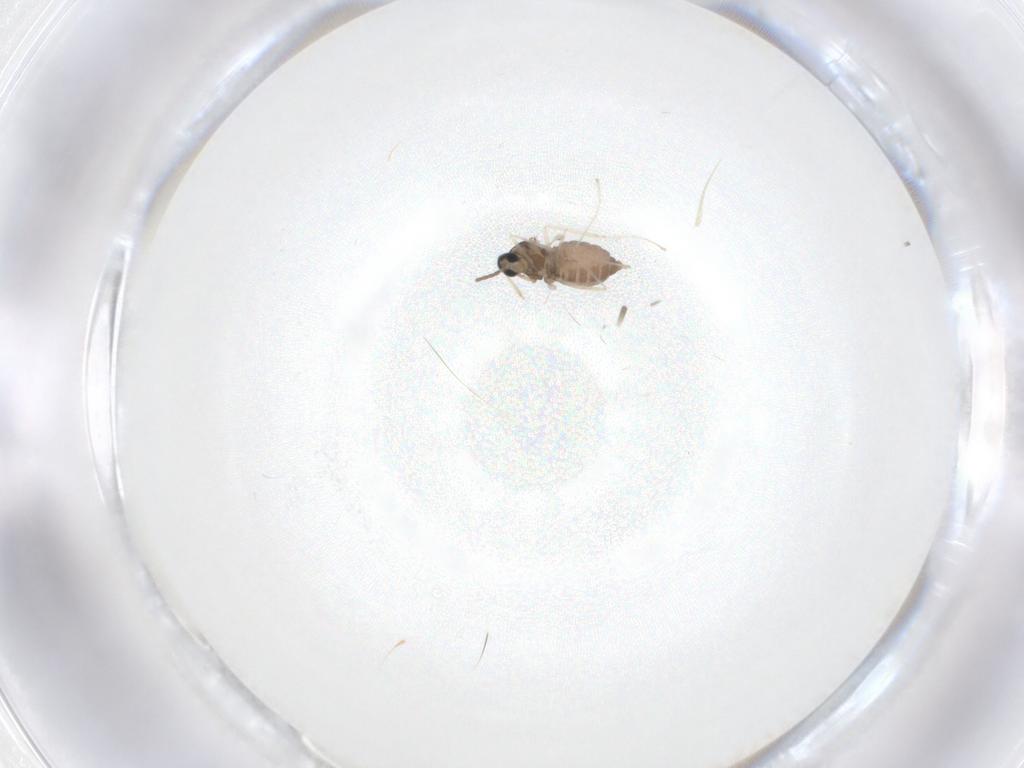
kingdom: Animalia
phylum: Arthropoda
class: Insecta
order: Diptera
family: Cecidomyiidae
